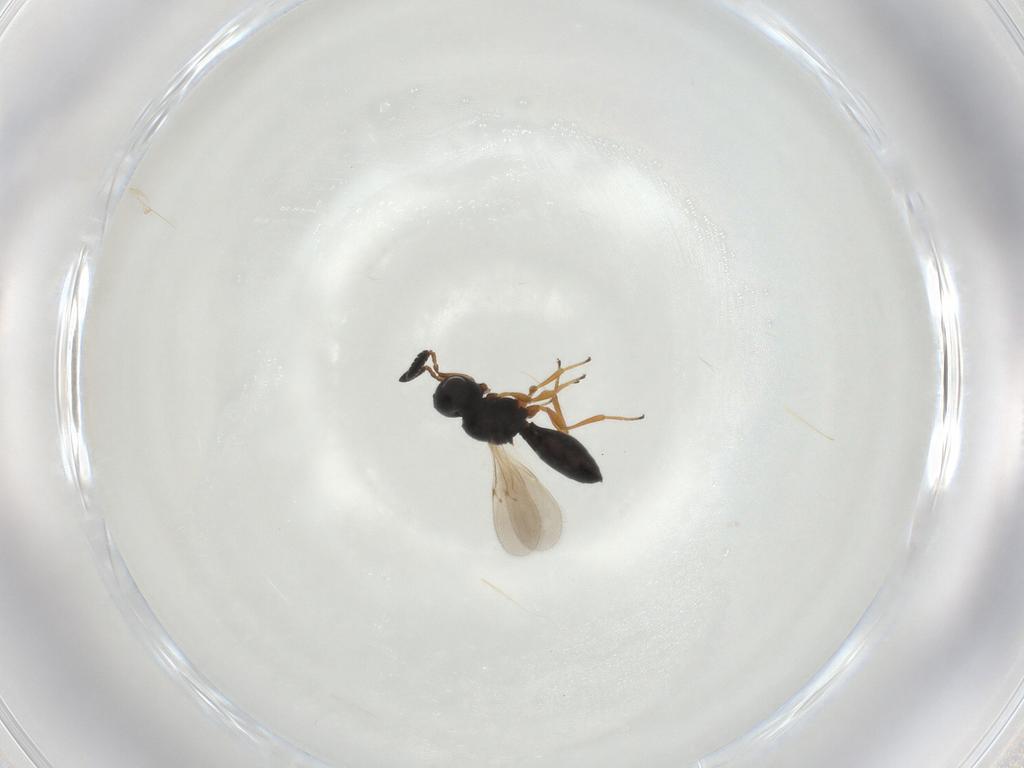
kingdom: Animalia
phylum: Arthropoda
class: Insecta
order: Hymenoptera
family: Scelionidae
